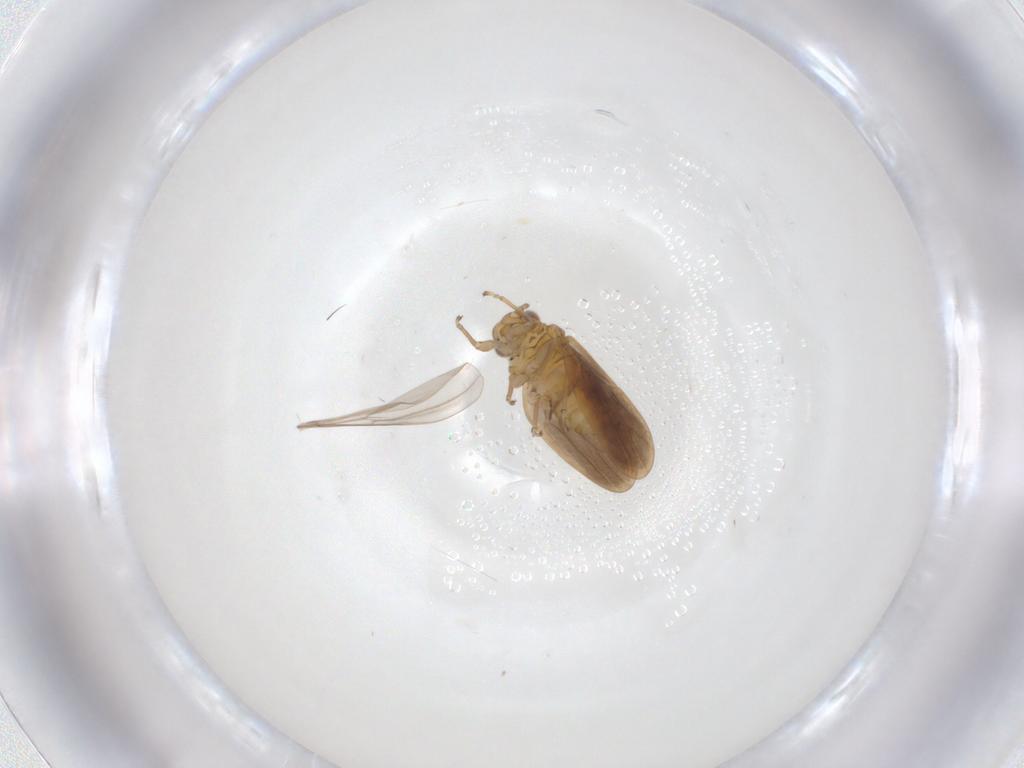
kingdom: Animalia
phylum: Arthropoda
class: Insecta
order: Hemiptera
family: Psylloidea_incertae_sedis
